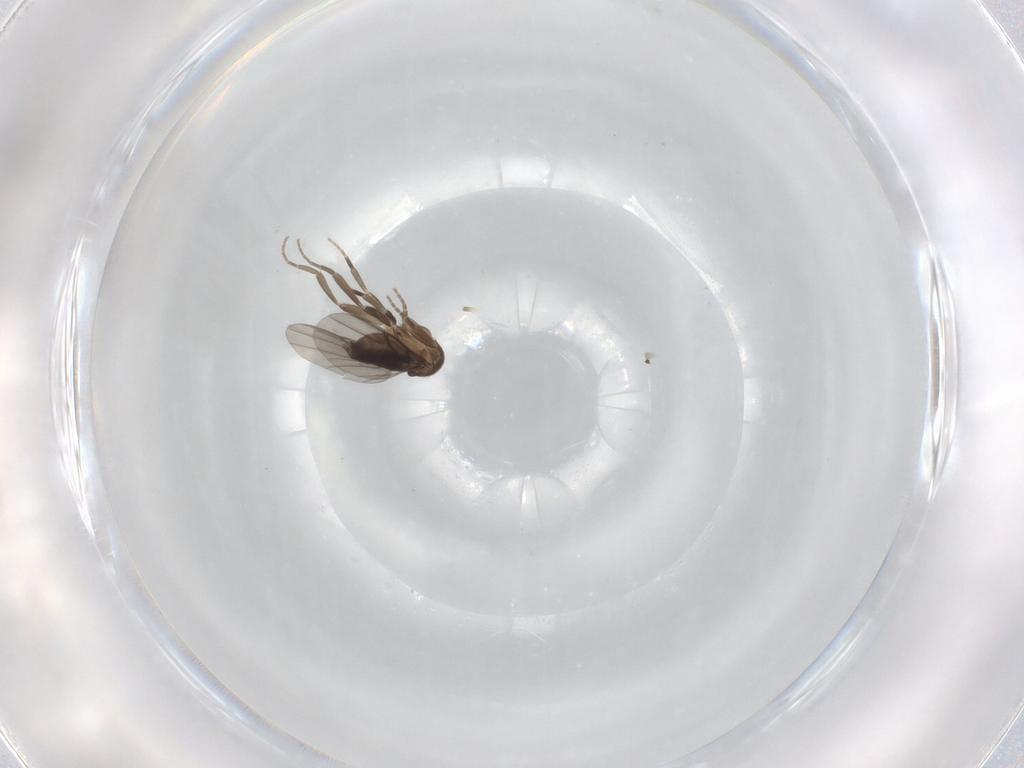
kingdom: Animalia
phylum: Arthropoda
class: Insecta
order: Diptera
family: Phoridae
